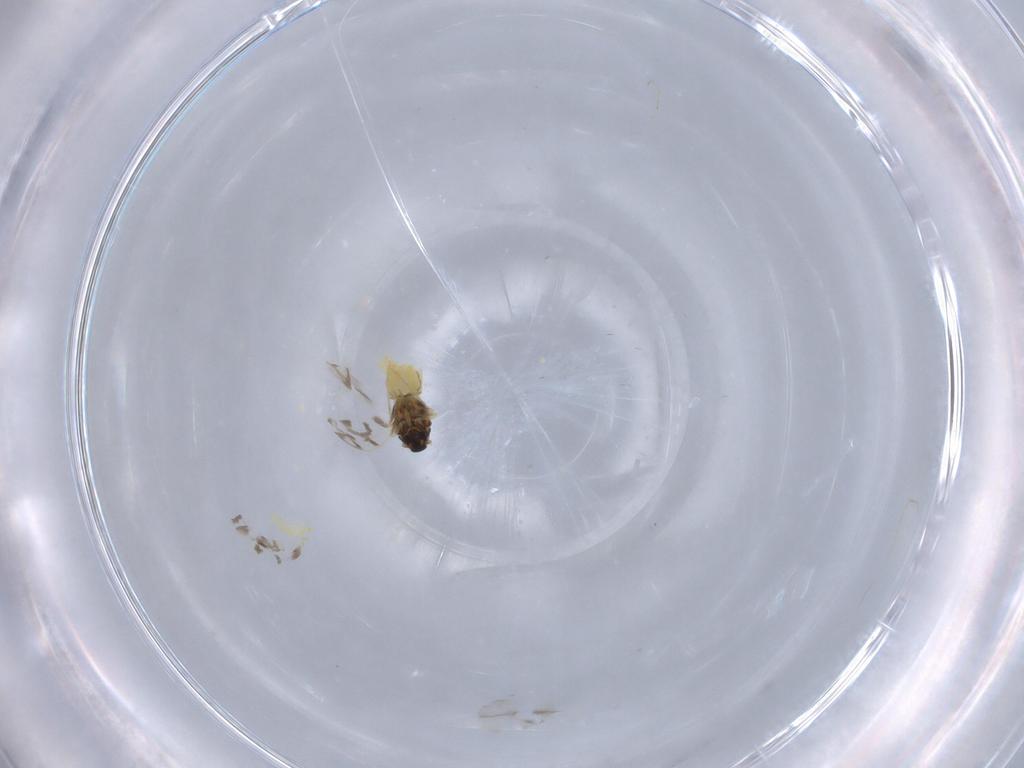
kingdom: Animalia
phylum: Arthropoda
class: Insecta
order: Hemiptera
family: Aleyrodidae
